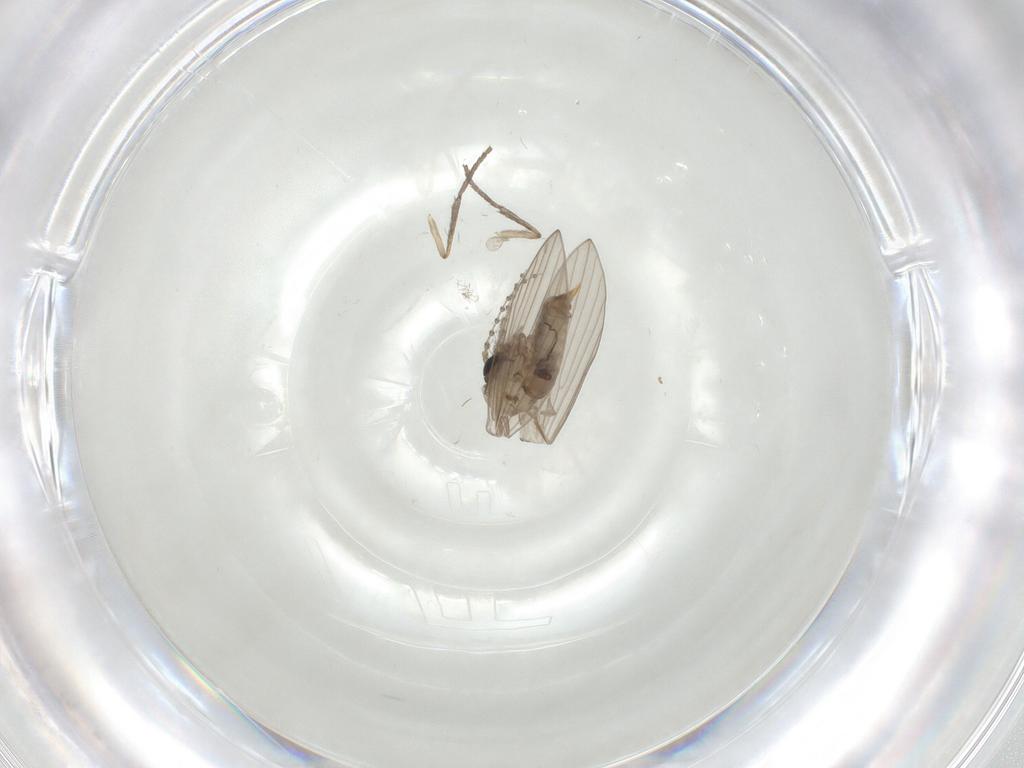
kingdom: Animalia
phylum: Arthropoda
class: Insecta
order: Diptera
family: Psychodidae
